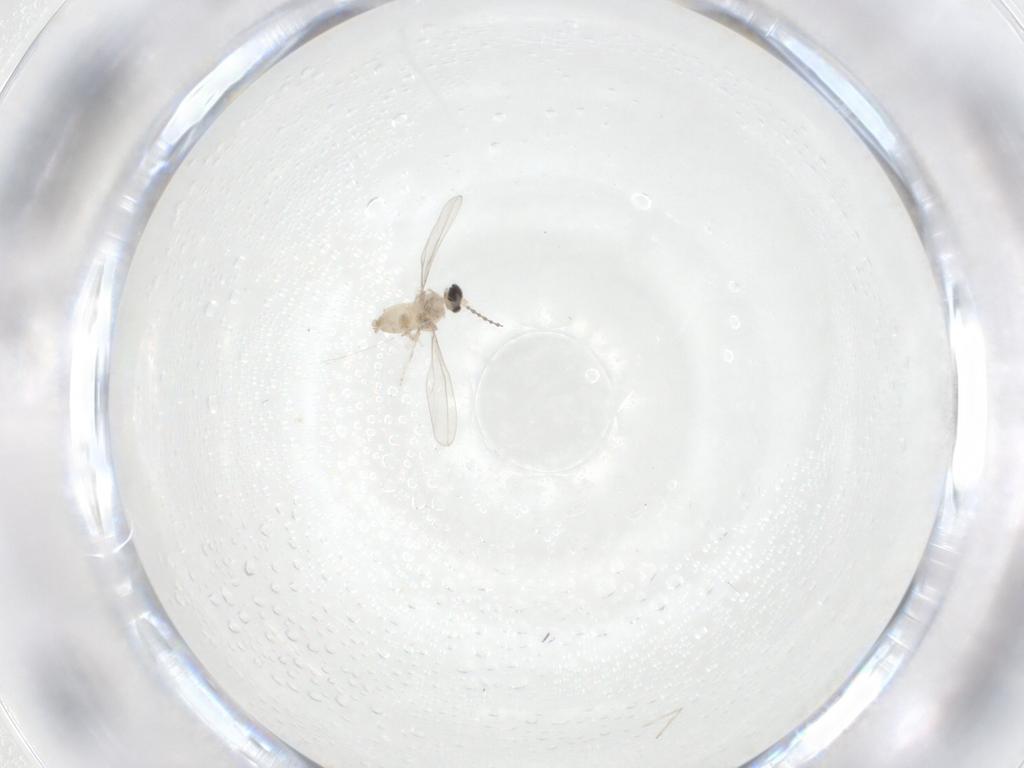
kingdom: Animalia
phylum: Arthropoda
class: Insecta
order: Diptera
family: Cecidomyiidae
